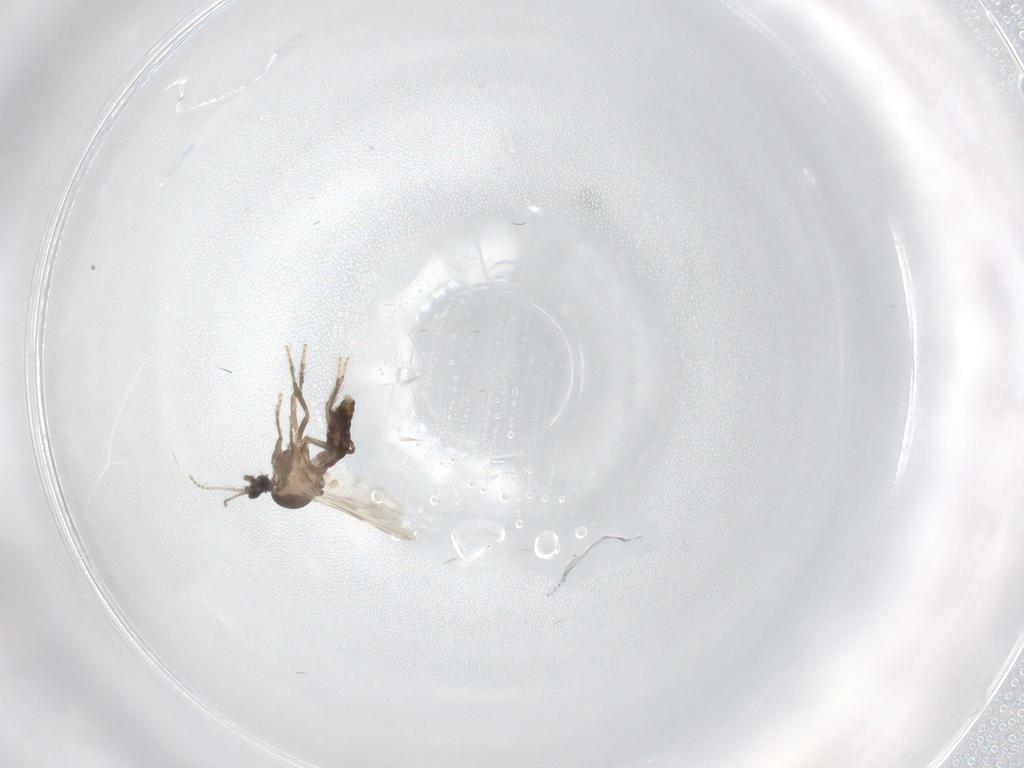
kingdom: Animalia
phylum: Arthropoda
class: Insecta
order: Diptera
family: Ceratopogonidae
